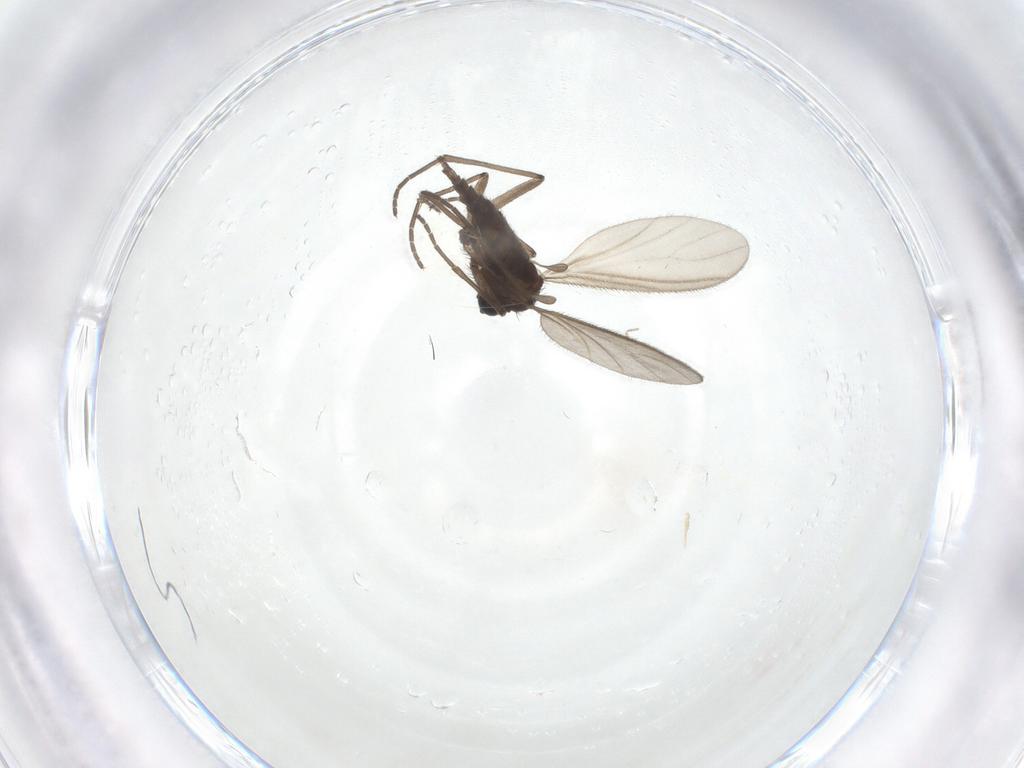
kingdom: Animalia
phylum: Arthropoda
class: Insecta
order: Diptera
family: Sciaridae
